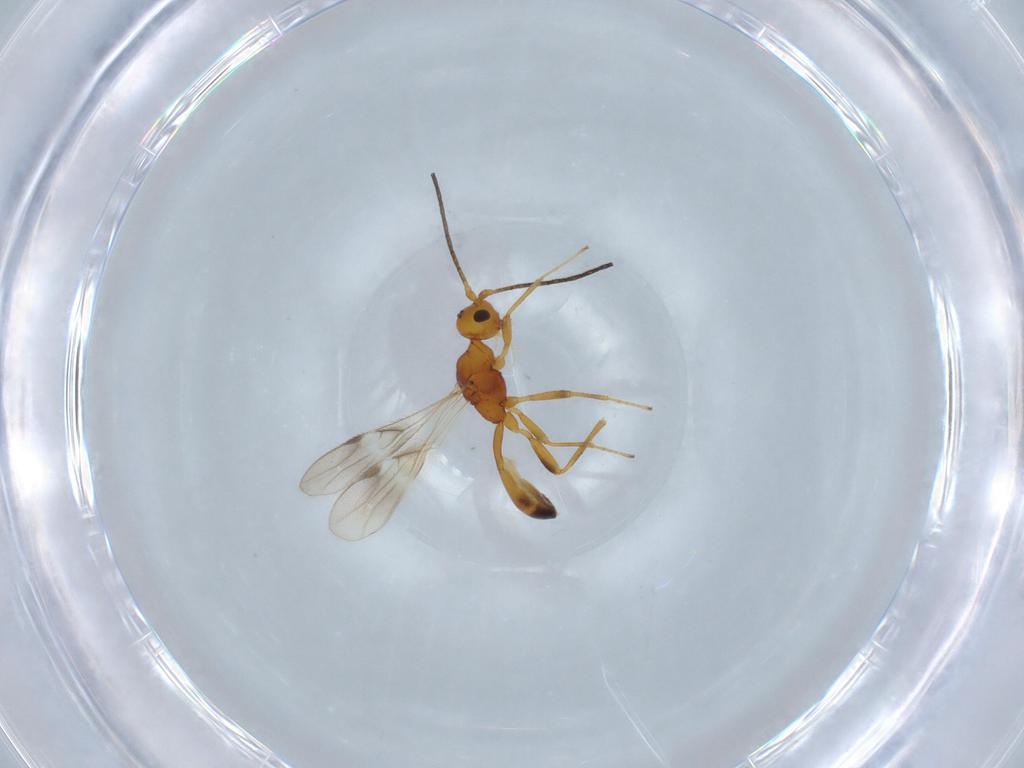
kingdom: Animalia
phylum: Arthropoda
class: Insecta
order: Hymenoptera
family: Braconidae
